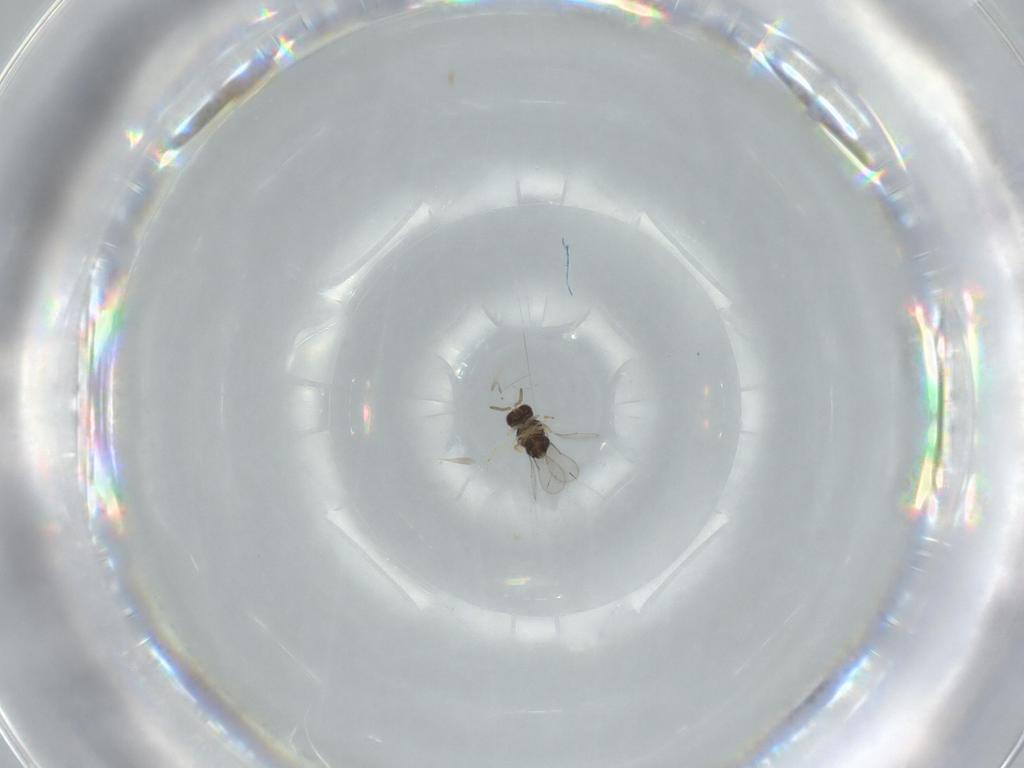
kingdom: Animalia
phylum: Arthropoda
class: Insecta
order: Hymenoptera
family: Aphelinidae
